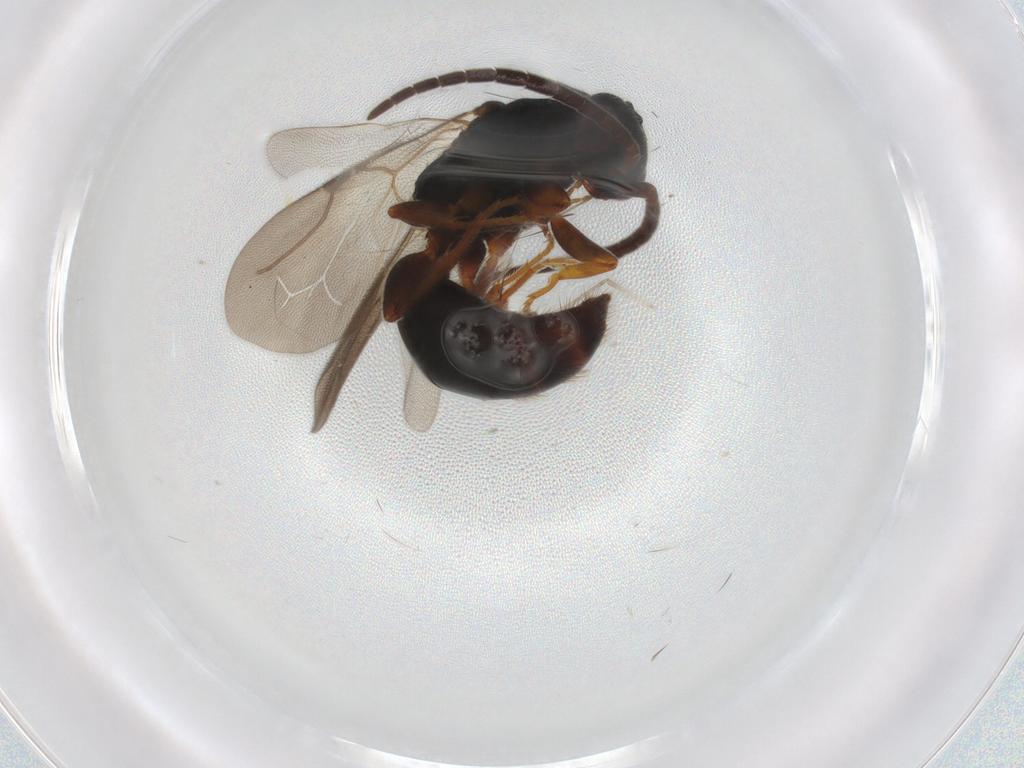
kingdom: Animalia
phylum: Arthropoda
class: Insecta
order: Hymenoptera
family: Bethylidae
